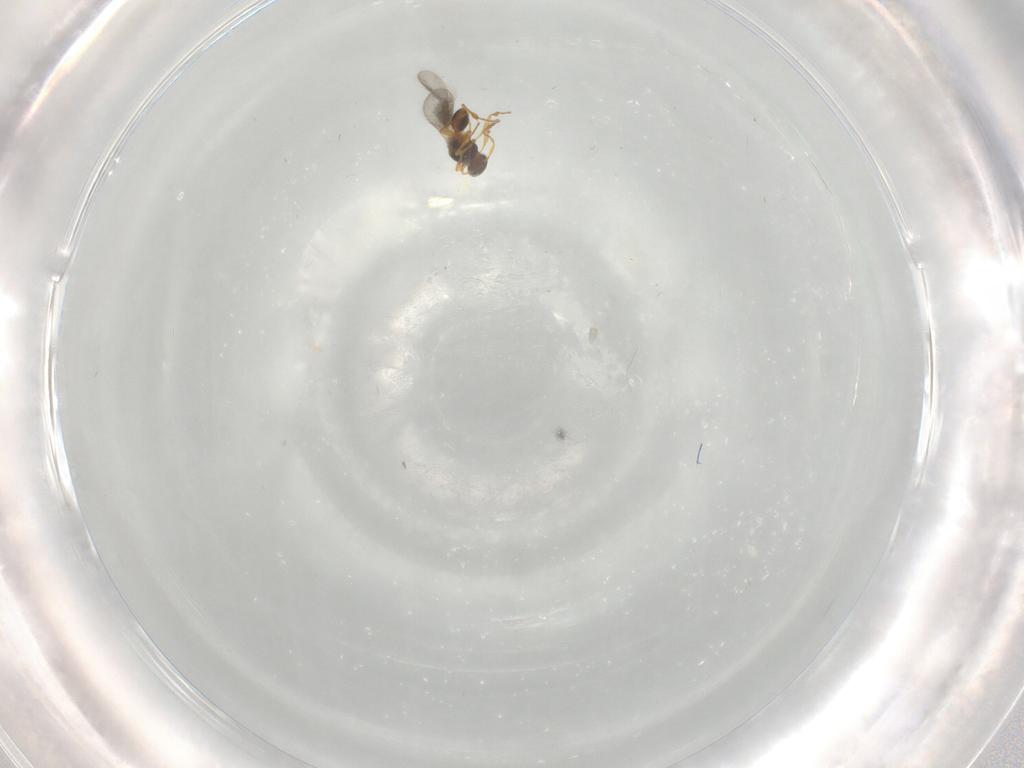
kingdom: Animalia
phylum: Arthropoda
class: Insecta
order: Hymenoptera
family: Platygastridae
